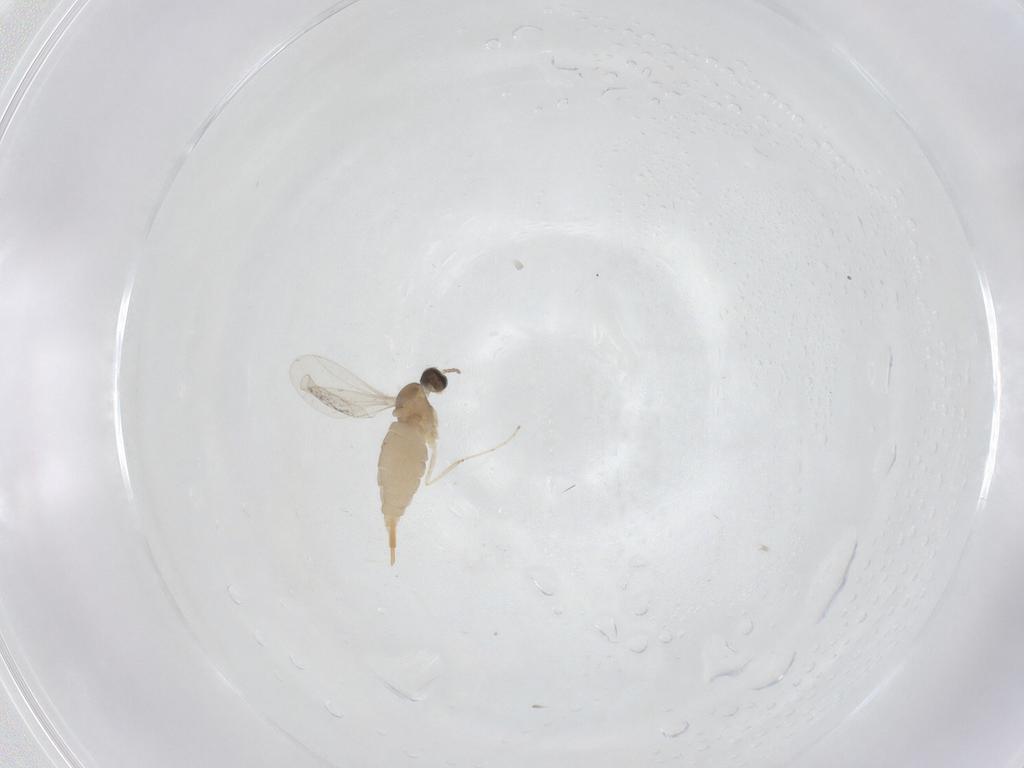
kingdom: Animalia
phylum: Arthropoda
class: Insecta
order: Diptera
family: Cecidomyiidae
